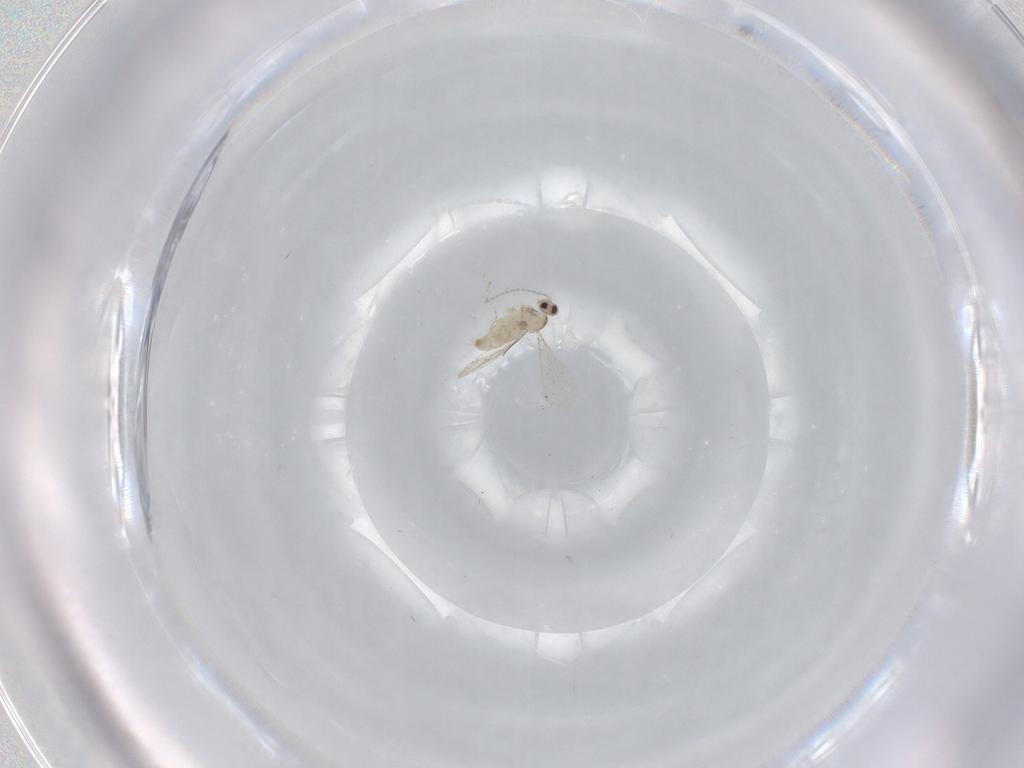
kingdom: Animalia
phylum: Arthropoda
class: Insecta
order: Diptera
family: Cecidomyiidae
